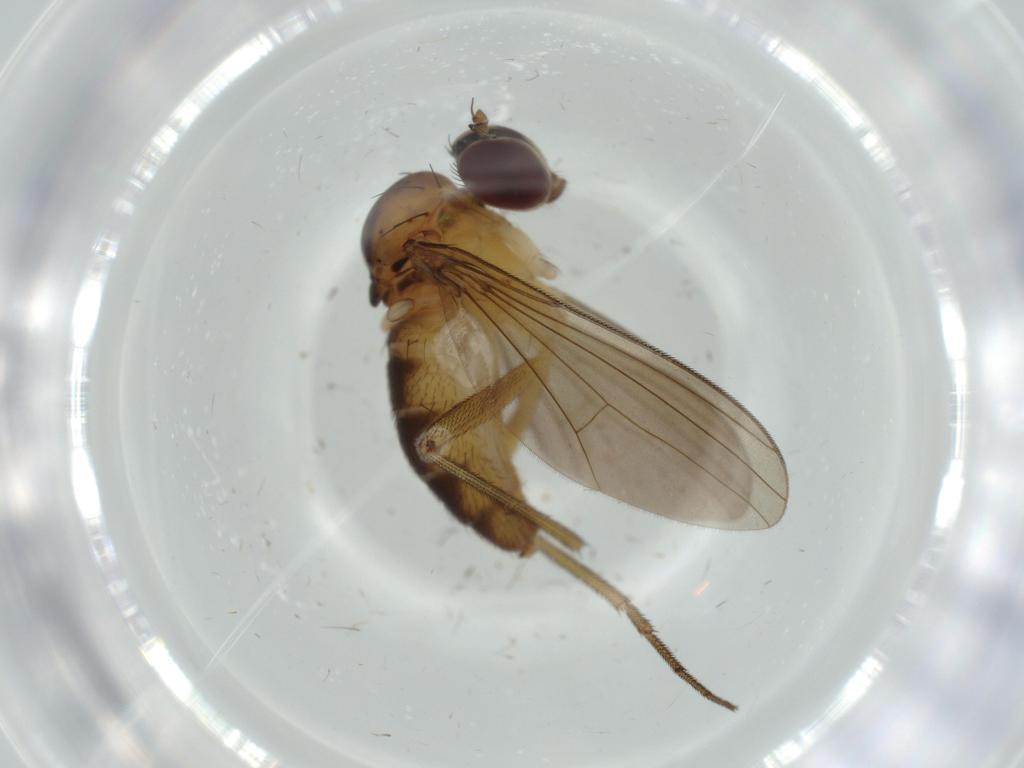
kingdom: Animalia
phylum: Arthropoda
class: Insecta
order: Diptera
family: Dolichopodidae
